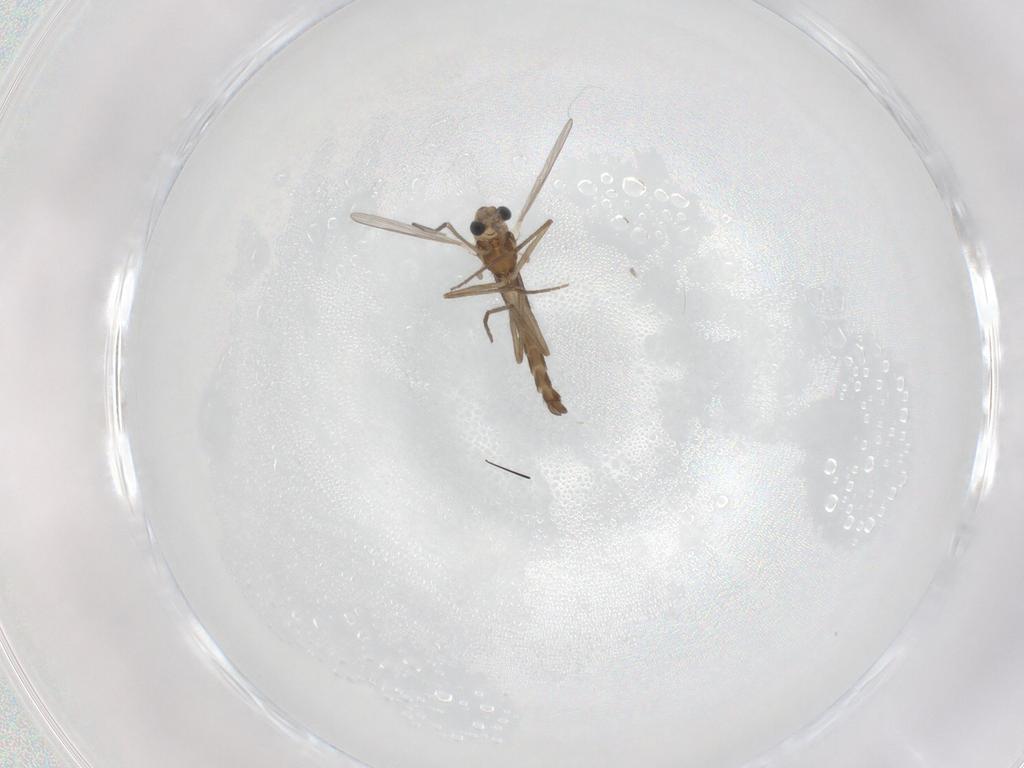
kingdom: Animalia
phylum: Arthropoda
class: Insecta
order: Diptera
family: Chironomidae
